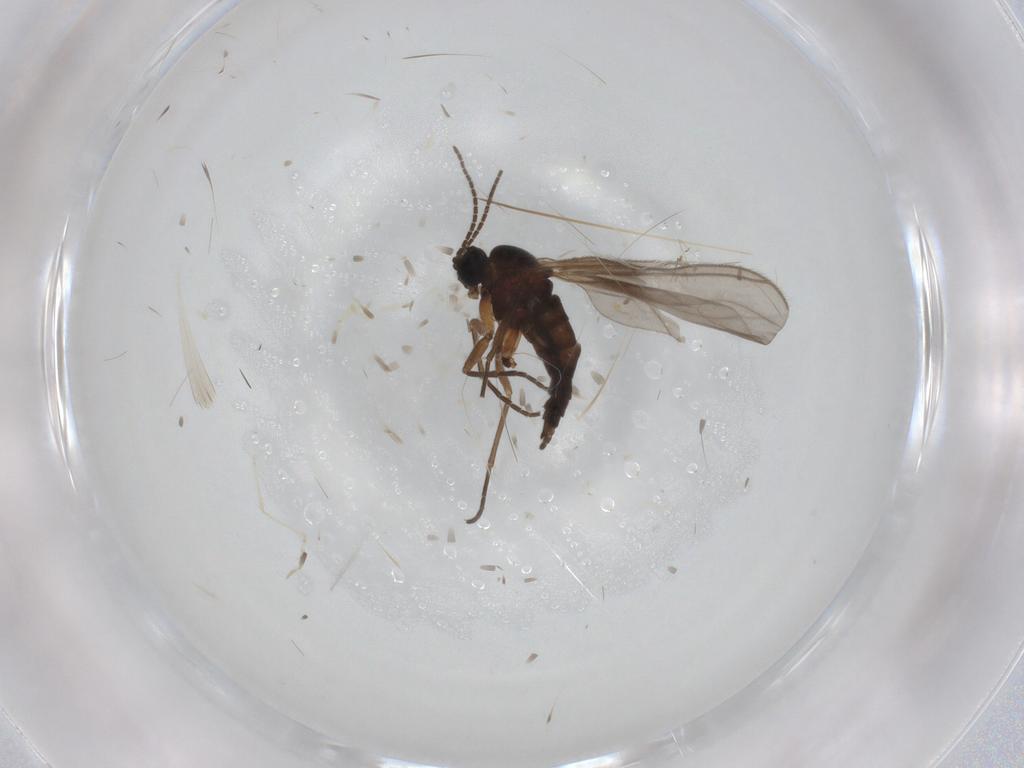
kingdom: Animalia
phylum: Arthropoda
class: Insecta
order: Diptera
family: Sciaridae
